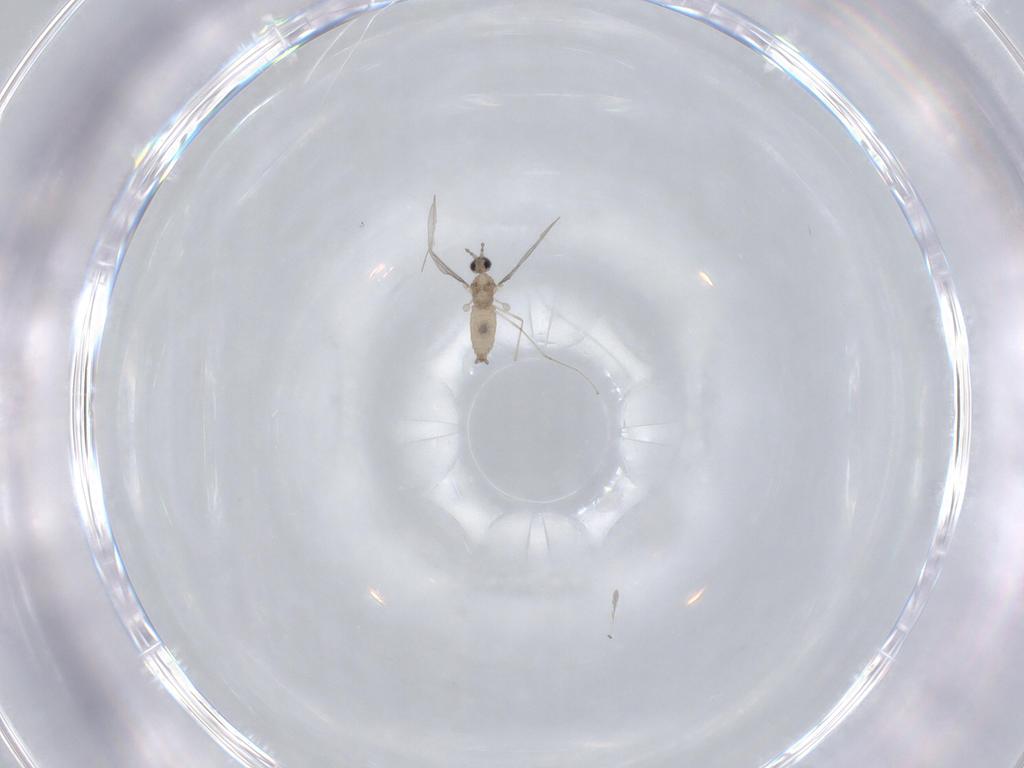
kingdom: Animalia
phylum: Arthropoda
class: Insecta
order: Diptera
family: Cecidomyiidae
